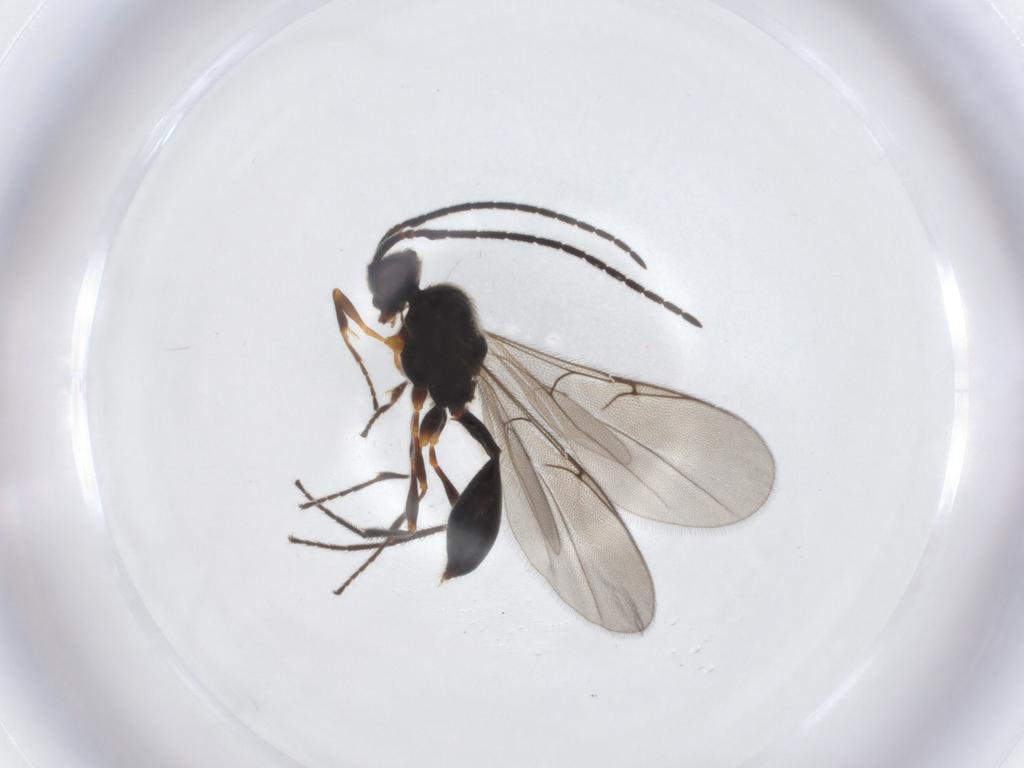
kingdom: Animalia
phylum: Arthropoda
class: Insecta
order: Hymenoptera
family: Diapriidae
